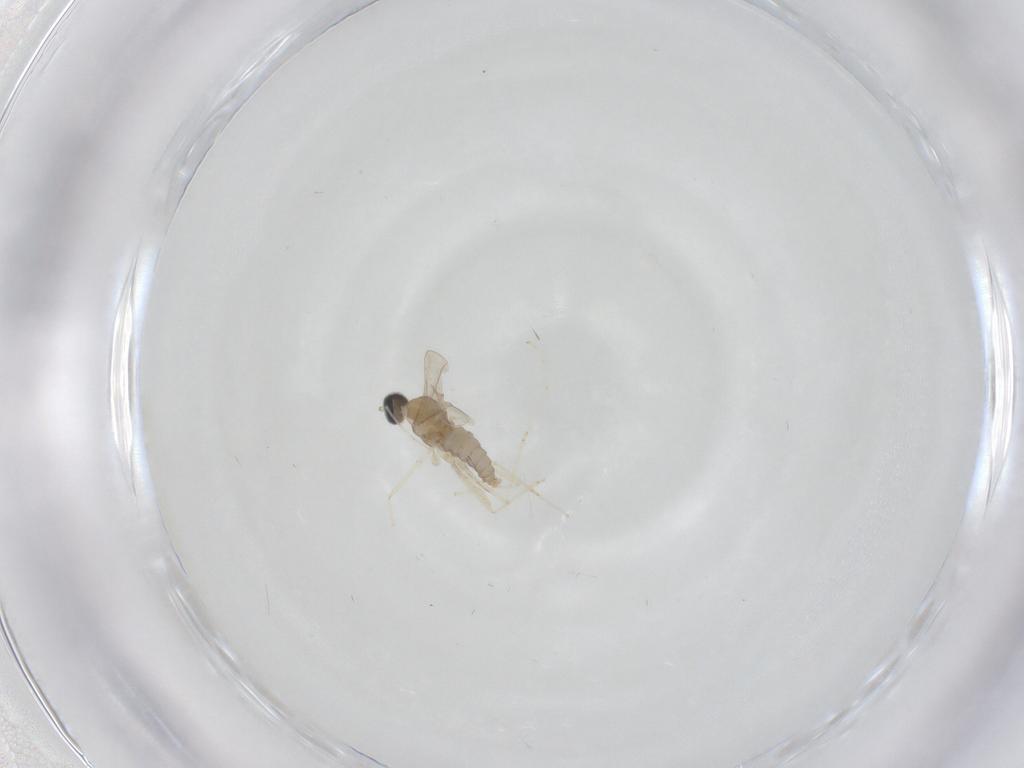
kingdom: Animalia
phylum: Arthropoda
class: Insecta
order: Diptera
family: Cecidomyiidae
